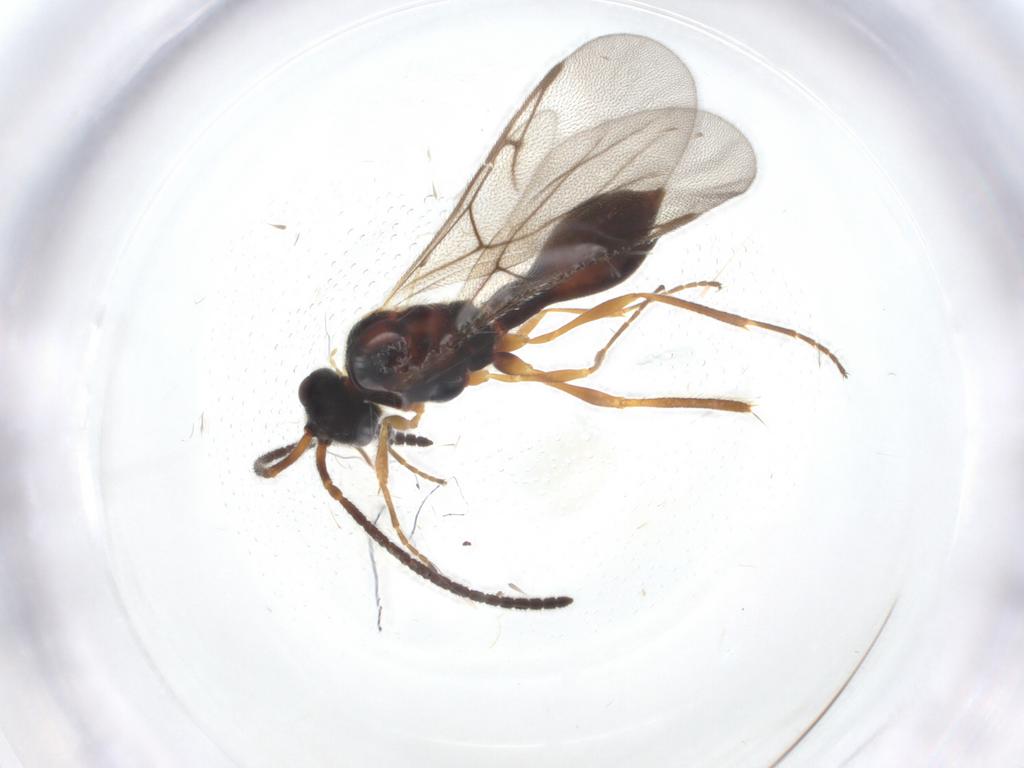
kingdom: Animalia
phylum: Arthropoda
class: Insecta
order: Hymenoptera
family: Diapriidae
